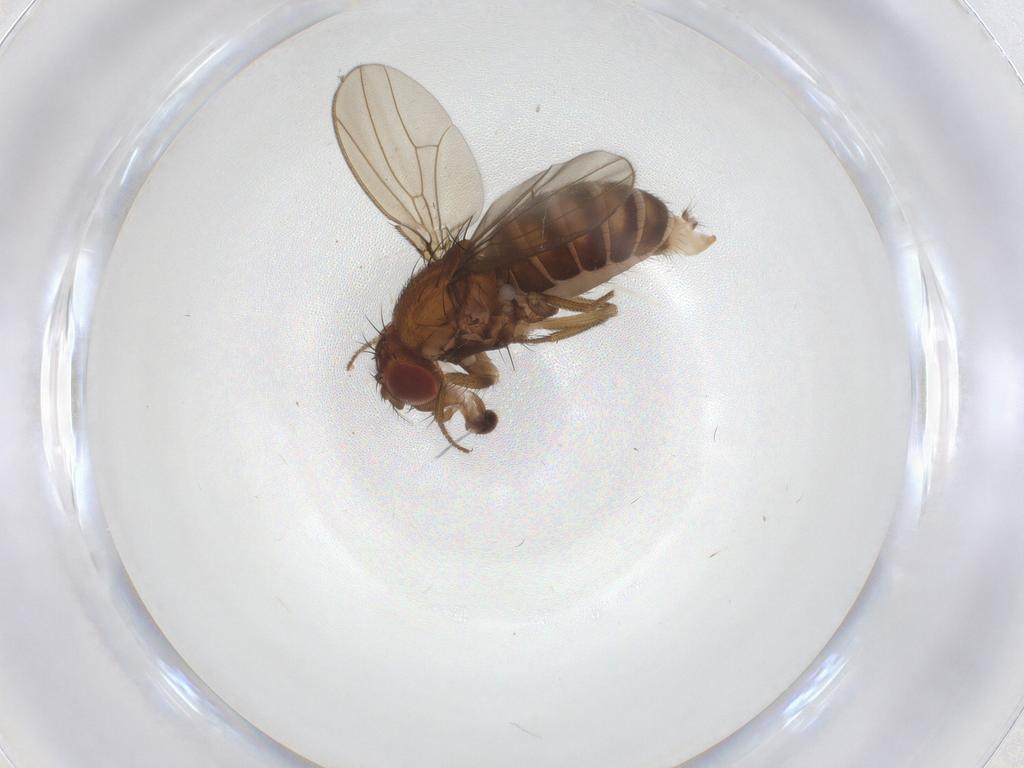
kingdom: Animalia
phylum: Arthropoda
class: Insecta
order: Diptera
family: Drosophilidae
